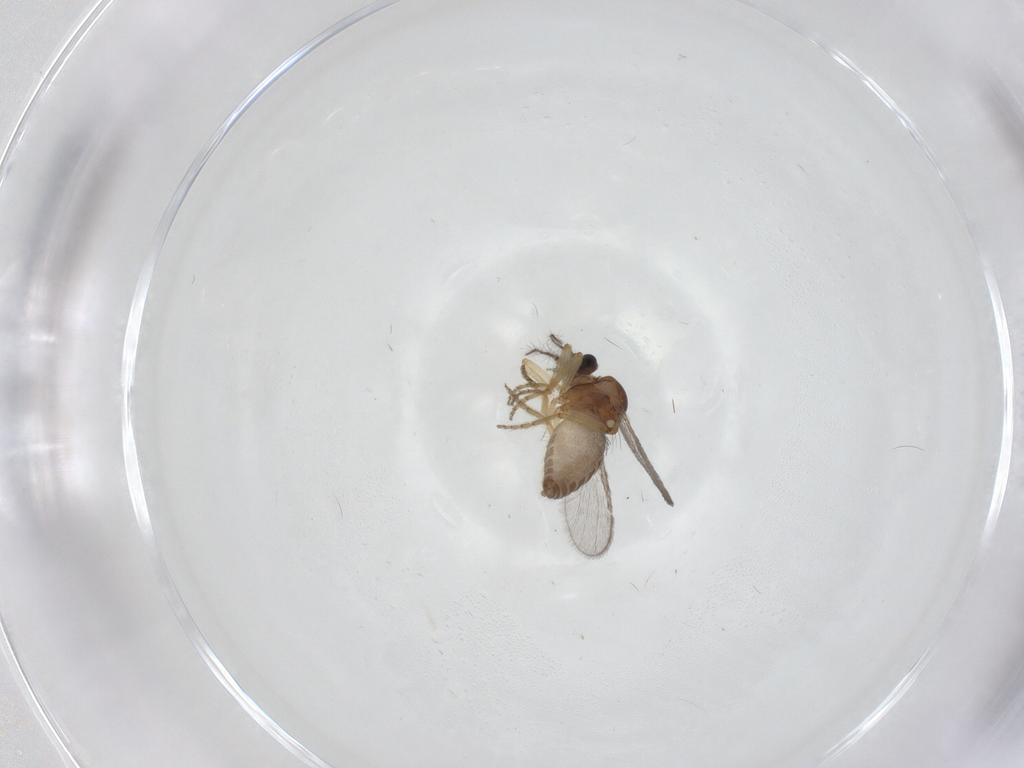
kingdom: Animalia
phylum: Arthropoda
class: Insecta
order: Diptera
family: Ceratopogonidae
